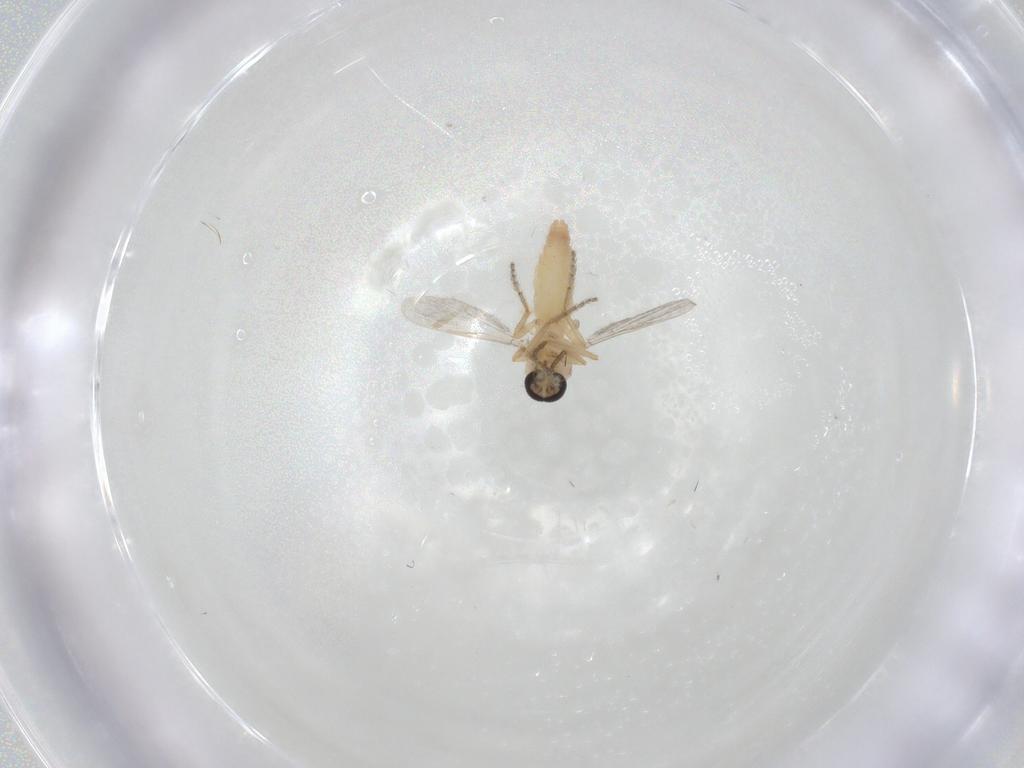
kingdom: Animalia
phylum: Arthropoda
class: Insecta
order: Diptera
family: Ceratopogonidae
